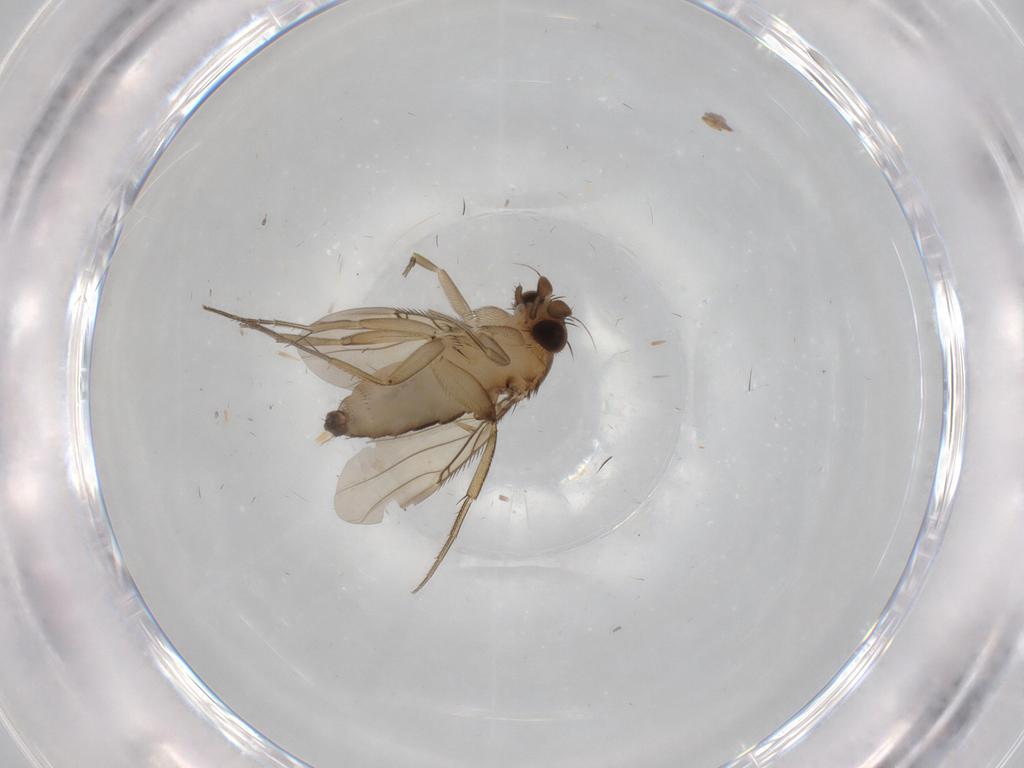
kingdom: Animalia
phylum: Arthropoda
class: Insecta
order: Diptera
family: Phoridae
